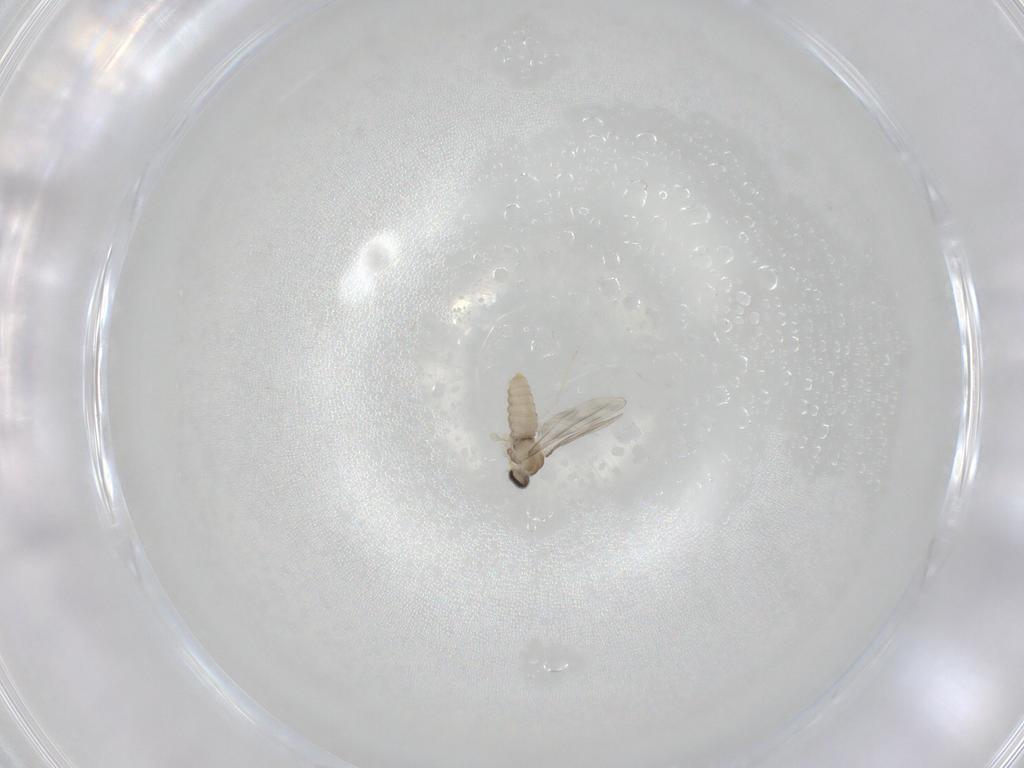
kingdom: Animalia
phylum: Arthropoda
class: Insecta
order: Diptera
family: Cecidomyiidae
